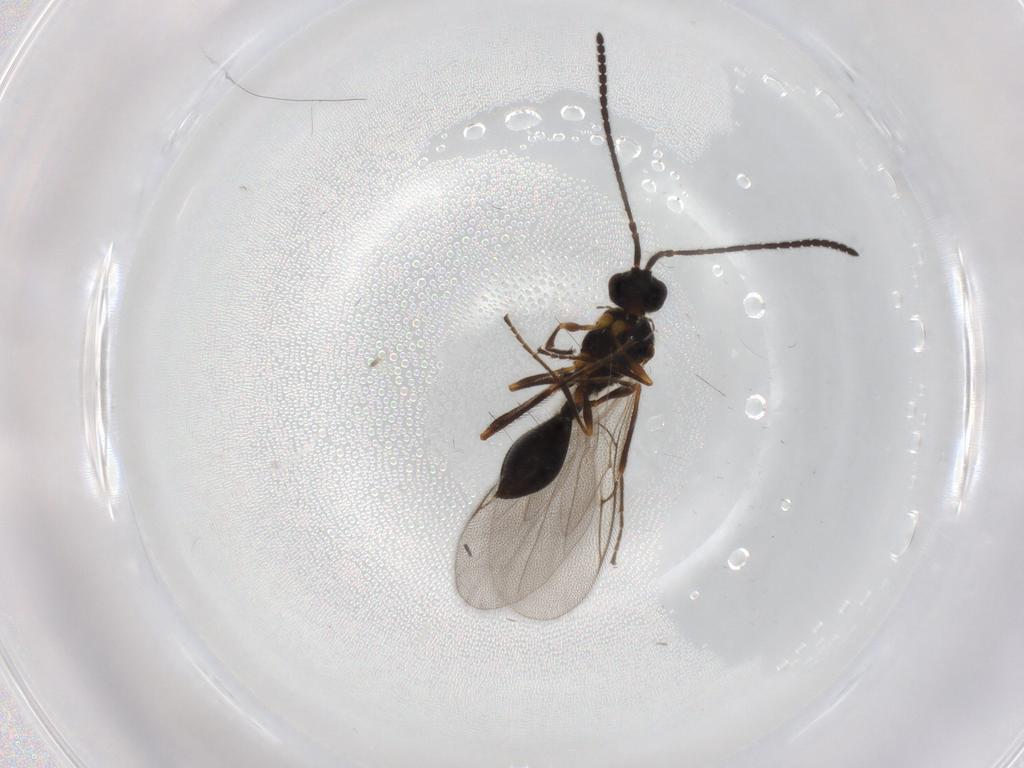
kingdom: Animalia
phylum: Arthropoda
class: Insecta
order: Hymenoptera
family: Diapriidae
